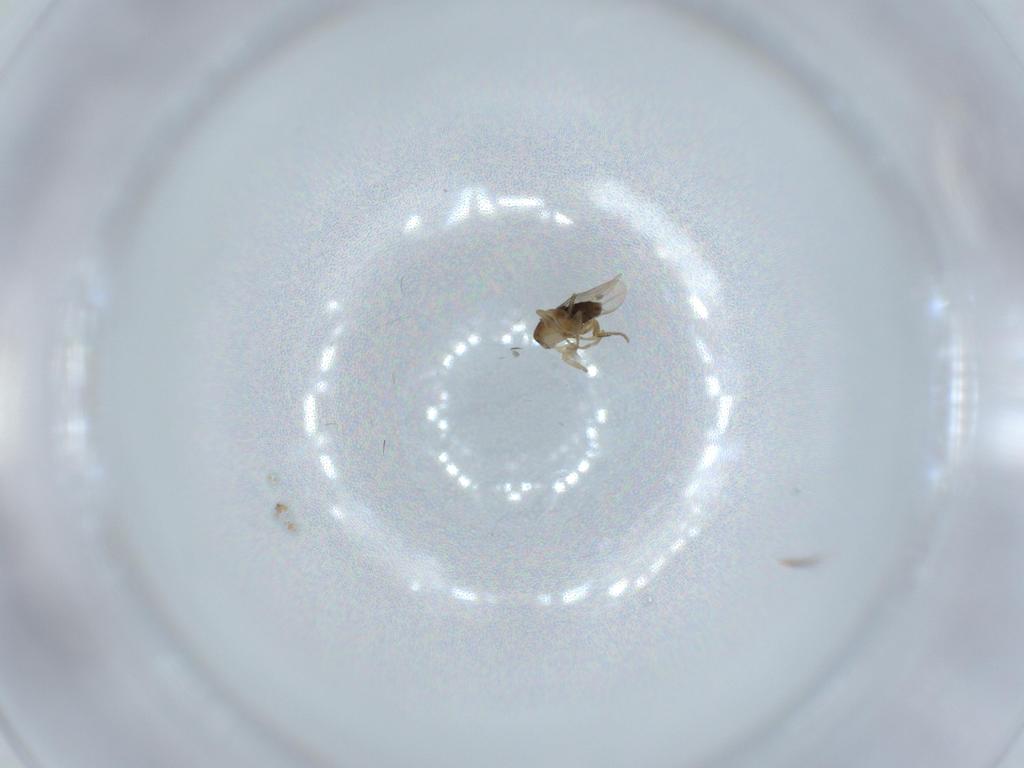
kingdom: Animalia
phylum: Arthropoda
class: Insecta
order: Diptera
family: Phoridae
